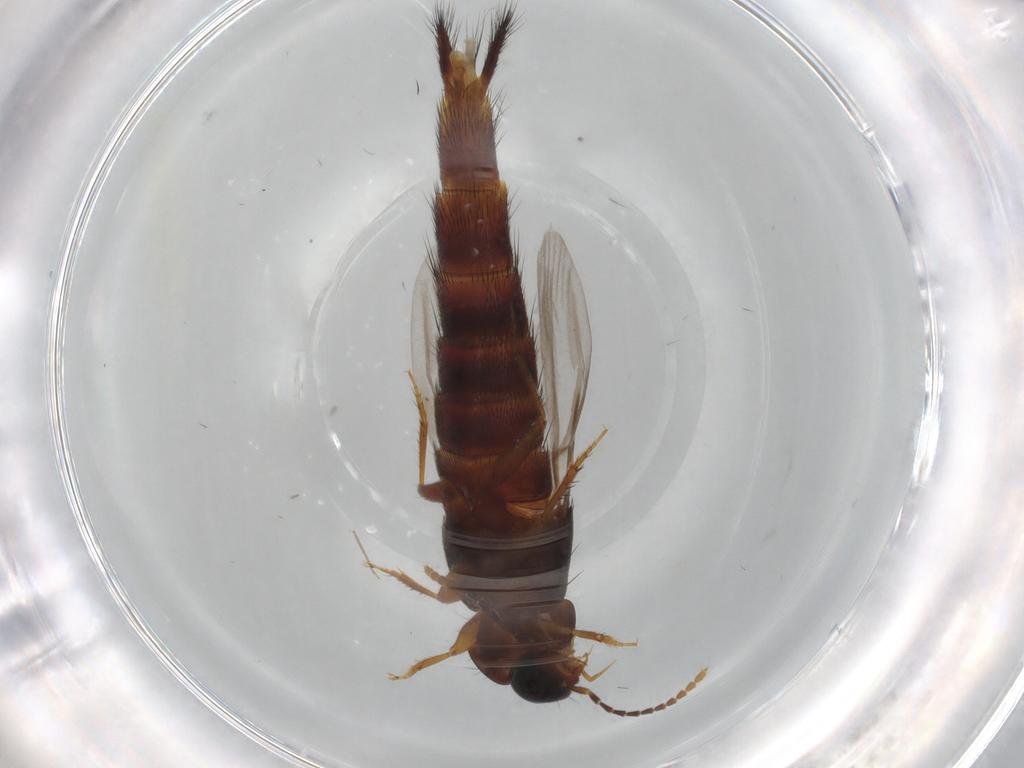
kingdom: Animalia
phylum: Arthropoda
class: Insecta
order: Coleoptera
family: Staphylinidae
